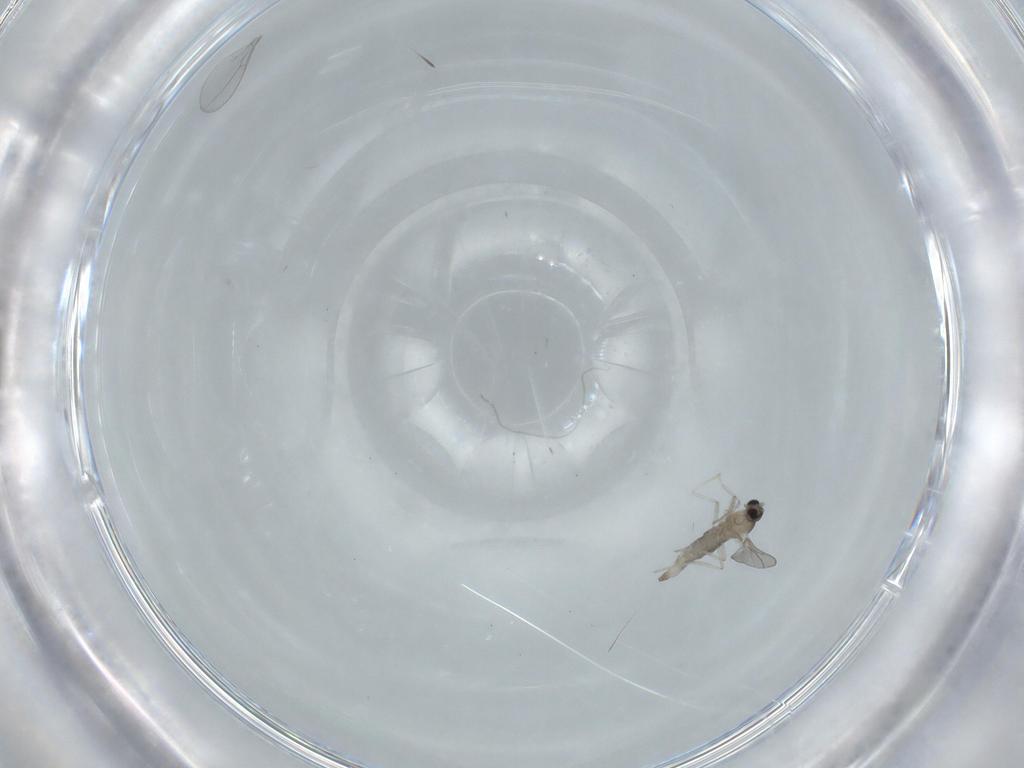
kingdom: Animalia
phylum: Arthropoda
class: Insecta
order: Diptera
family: Cecidomyiidae
